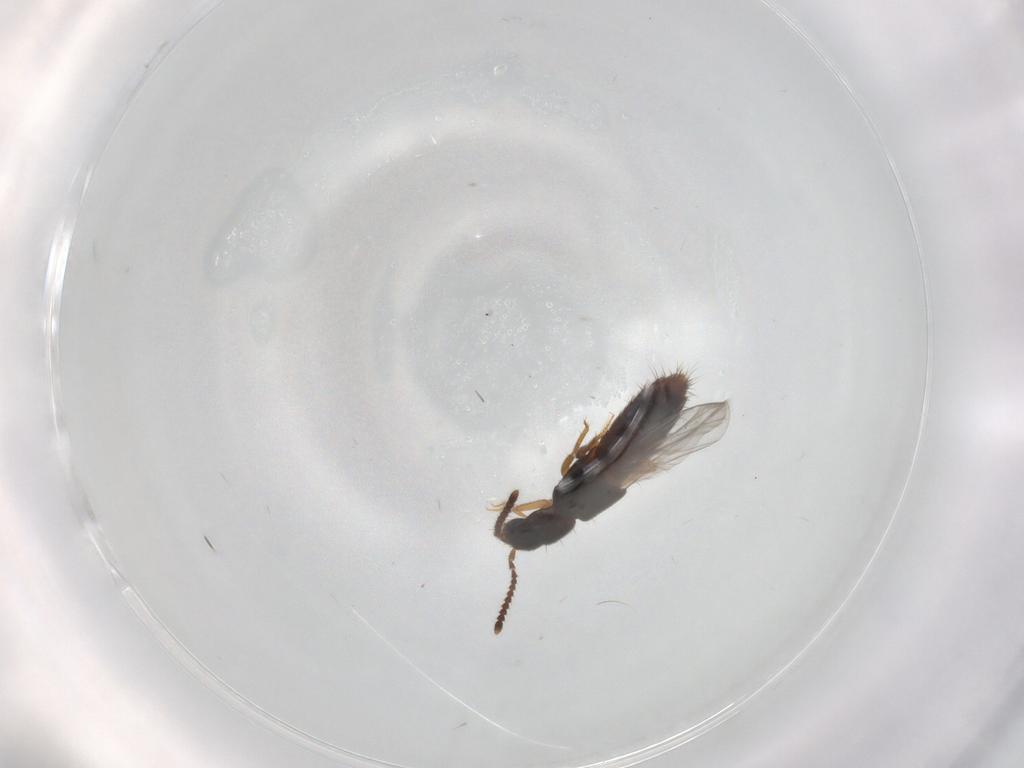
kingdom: Animalia
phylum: Arthropoda
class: Insecta
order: Coleoptera
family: Staphylinidae
